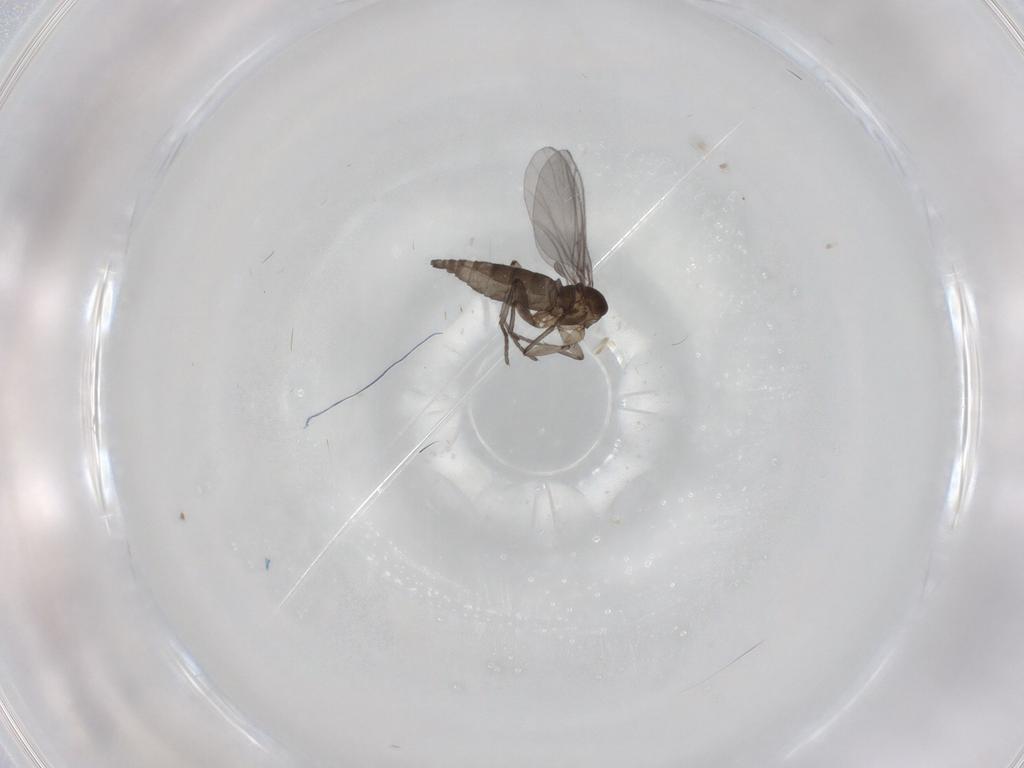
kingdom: Animalia
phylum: Arthropoda
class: Insecta
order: Diptera
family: Sciaridae
